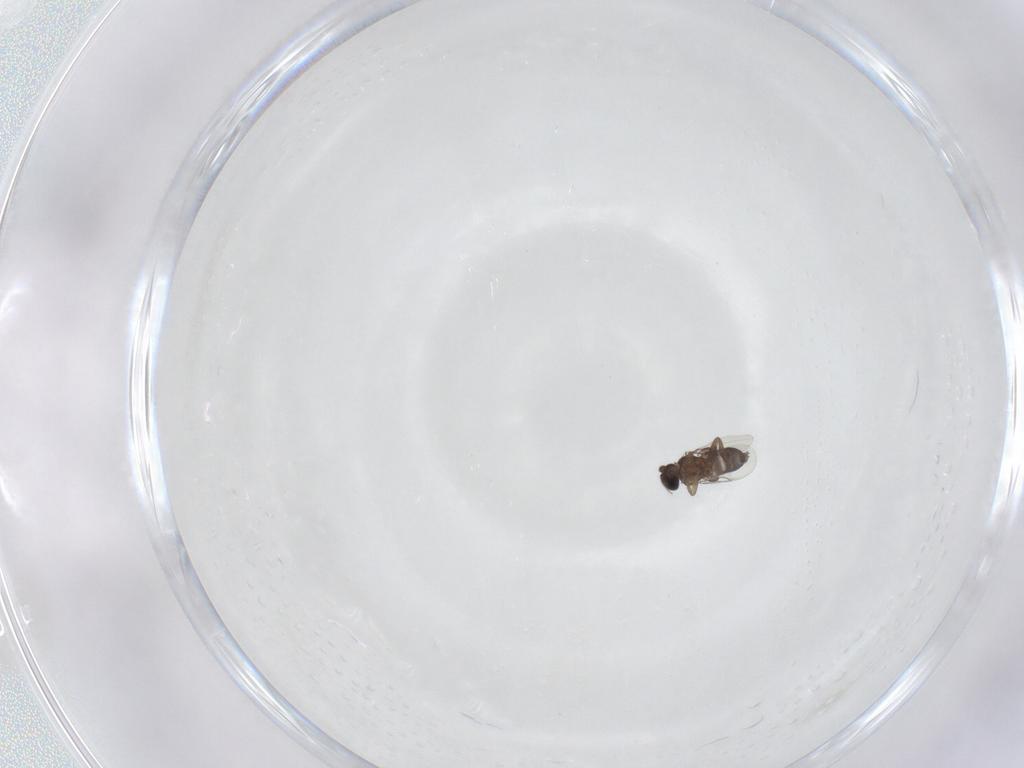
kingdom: Animalia
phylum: Arthropoda
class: Insecta
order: Diptera
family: Phoridae
